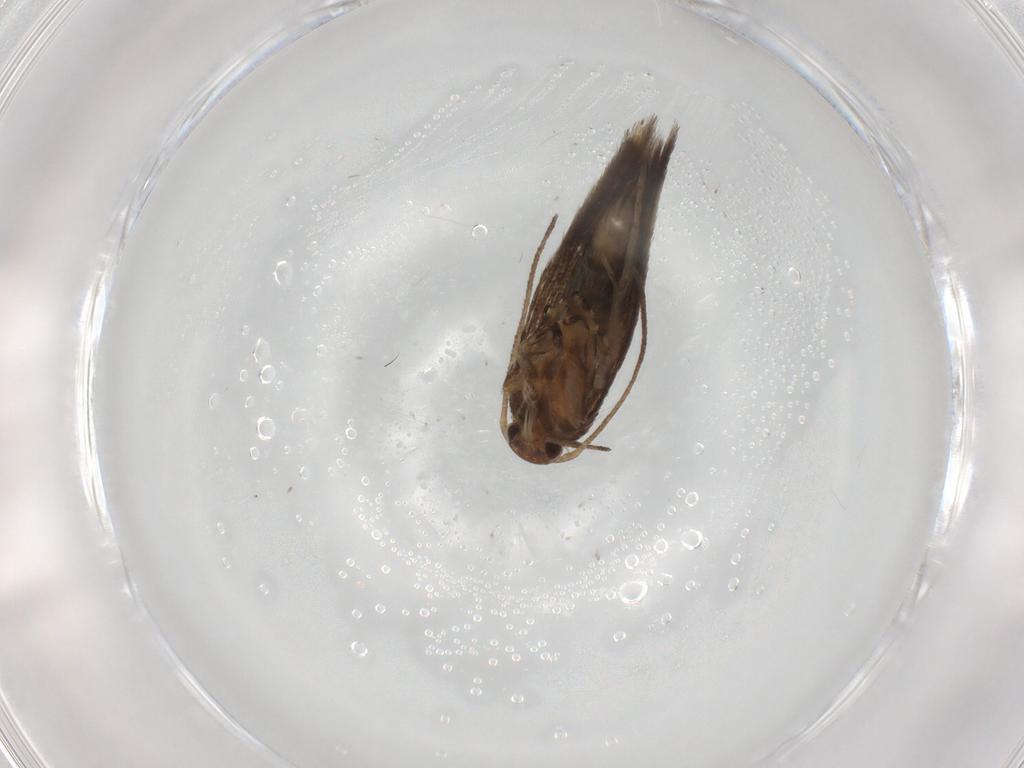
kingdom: Animalia
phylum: Arthropoda
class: Insecta
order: Lepidoptera
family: Elachistidae
